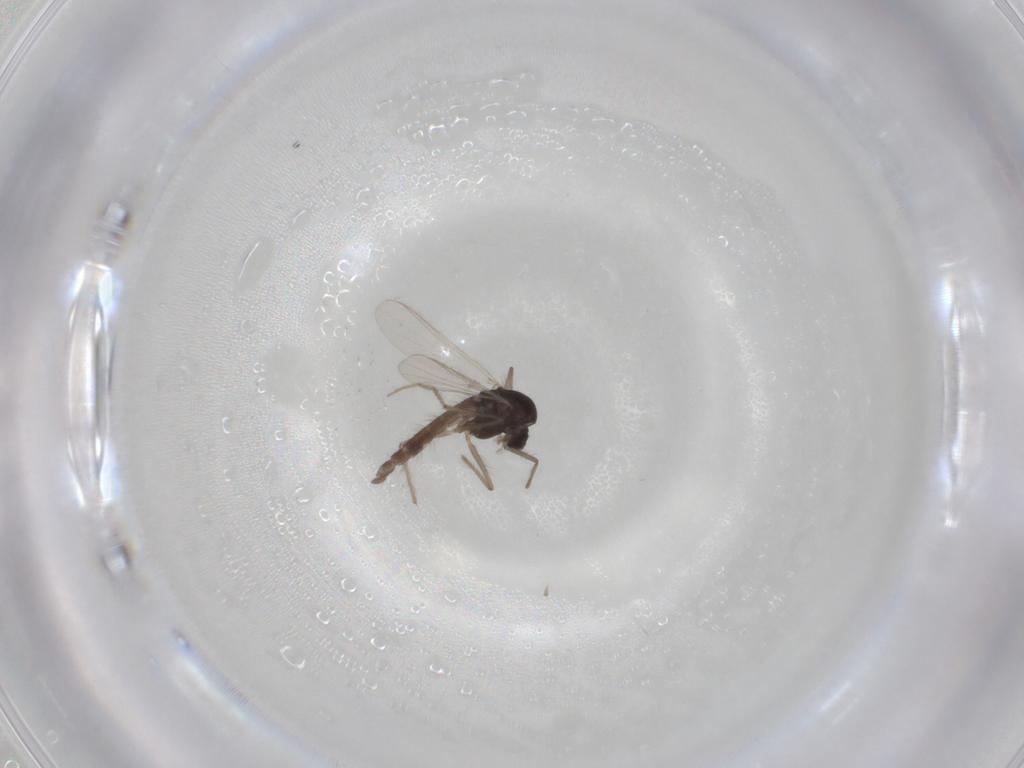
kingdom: Animalia
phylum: Arthropoda
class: Insecta
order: Diptera
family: Chironomidae
